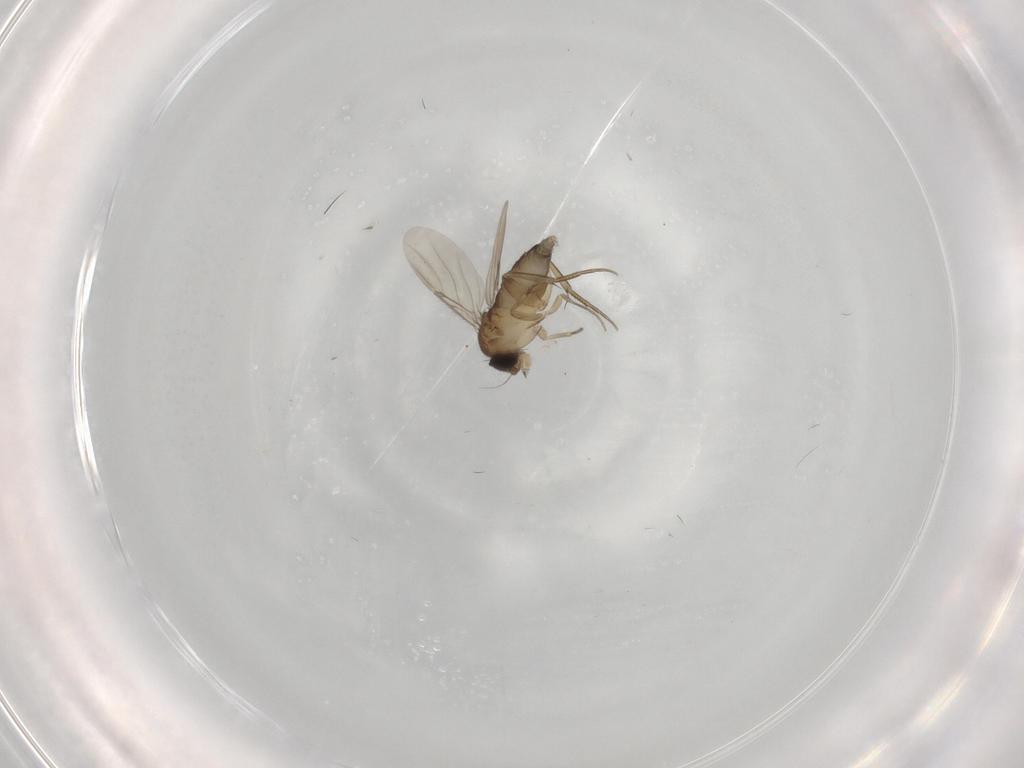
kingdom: Animalia
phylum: Arthropoda
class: Insecta
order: Diptera
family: Phoridae
